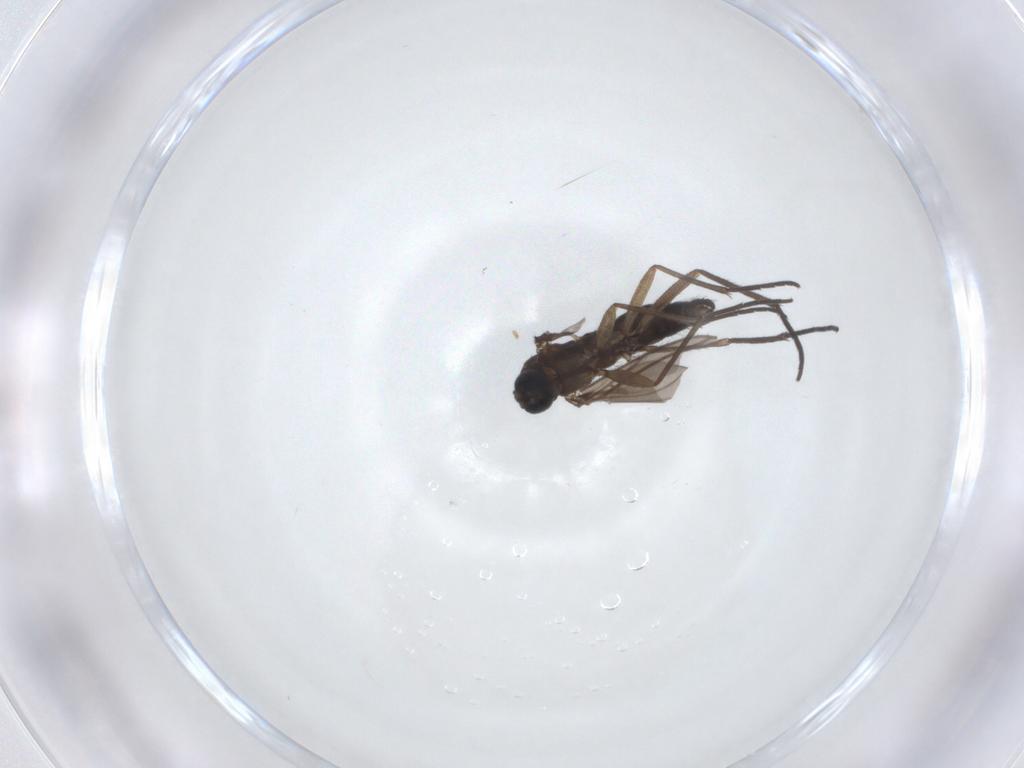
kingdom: Animalia
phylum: Arthropoda
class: Insecta
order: Diptera
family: Sciaridae
